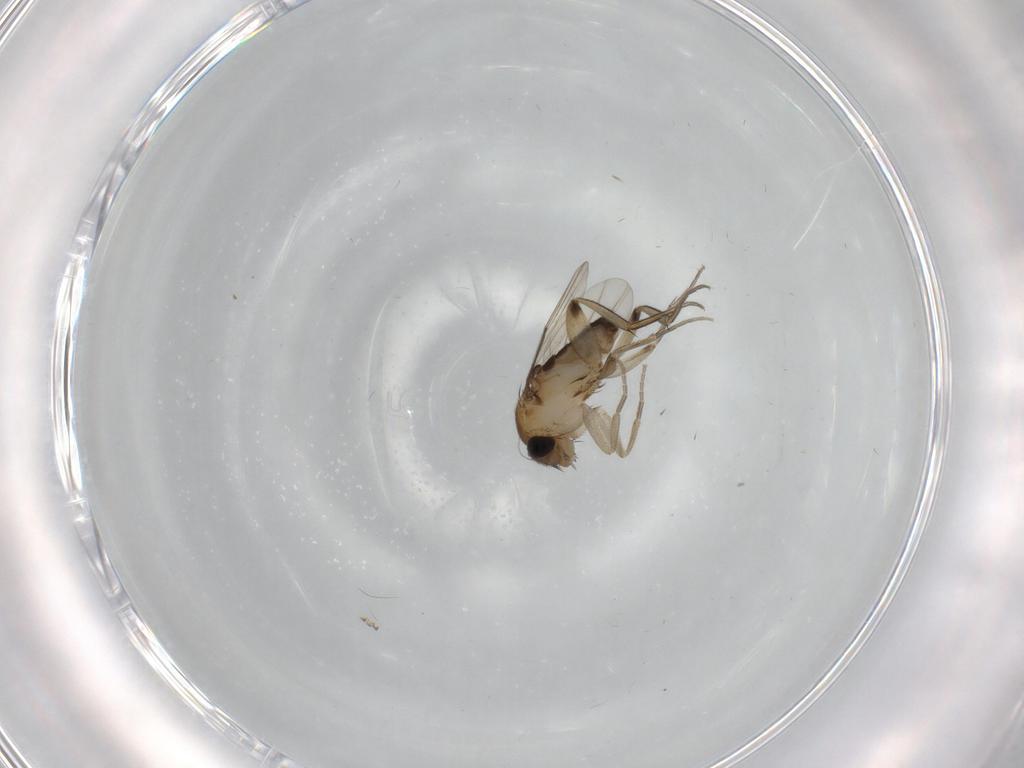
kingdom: Animalia
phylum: Arthropoda
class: Insecta
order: Diptera
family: Phoridae
